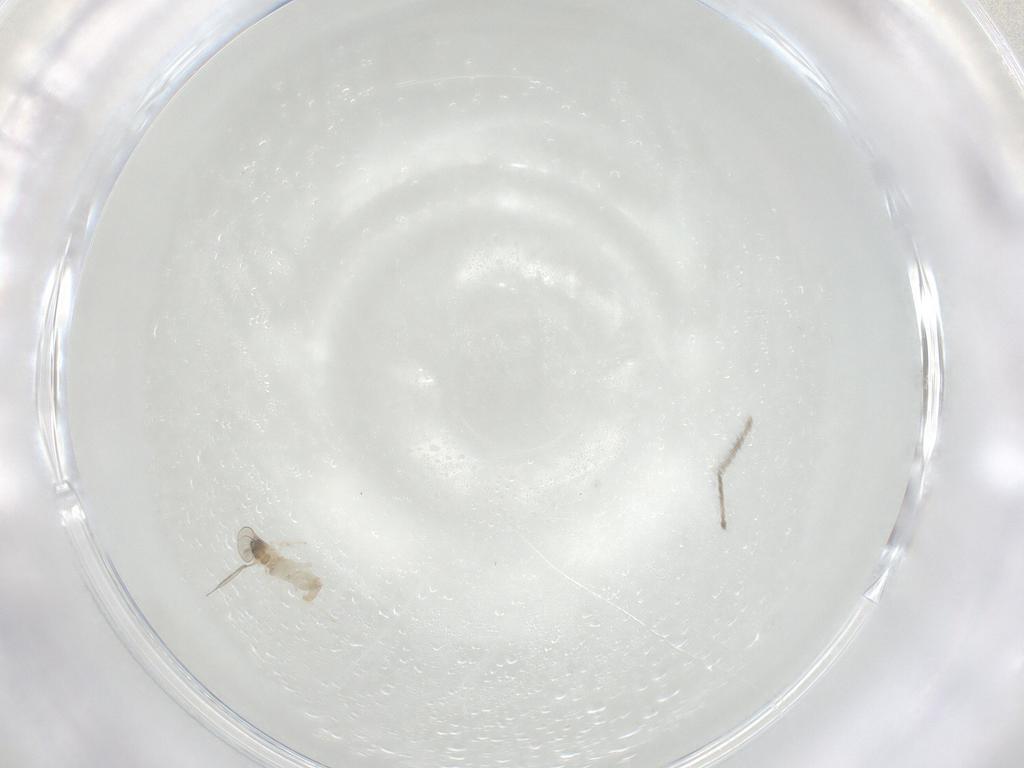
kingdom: Animalia
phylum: Arthropoda
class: Insecta
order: Diptera
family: Cecidomyiidae
